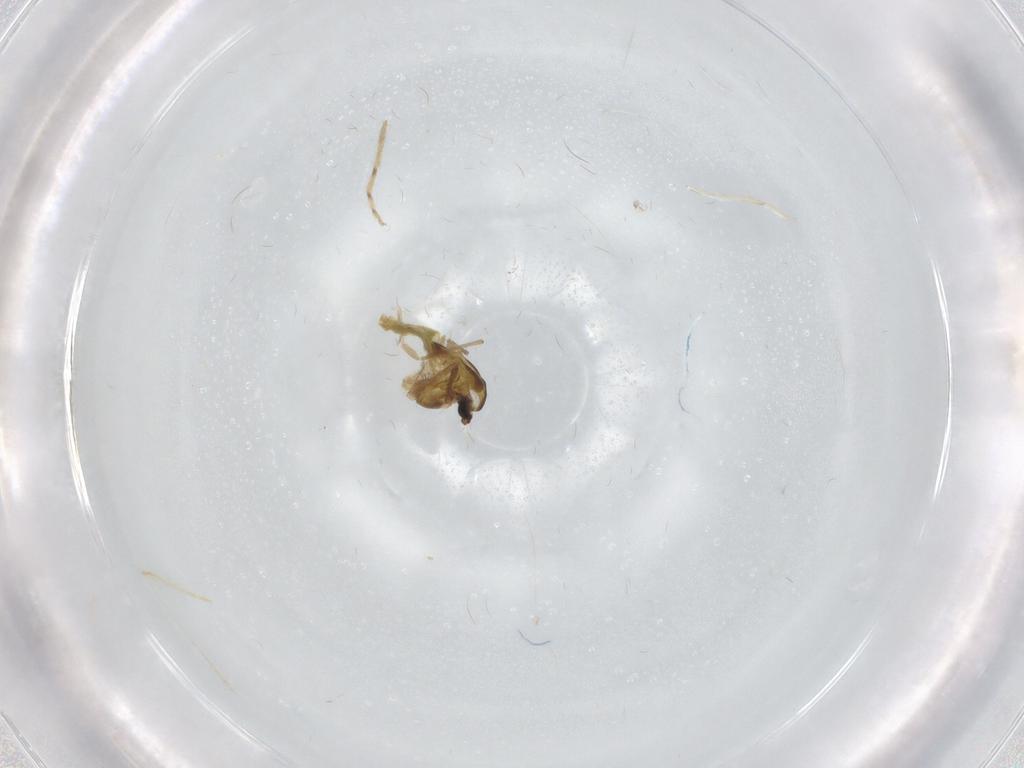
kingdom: Animalia
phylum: Arthropoda
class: Insecta
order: Diptera
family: Chironomidae
